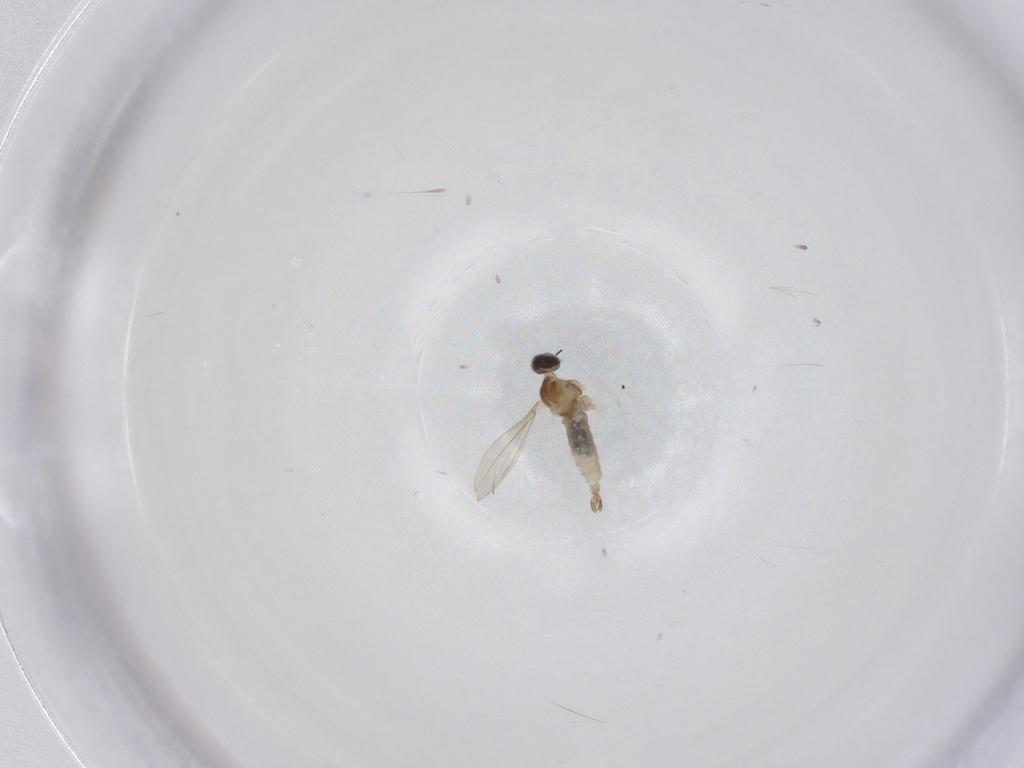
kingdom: Animalia
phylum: Arthropoda
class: Insecta
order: Diptera
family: Cecidomyiidae
